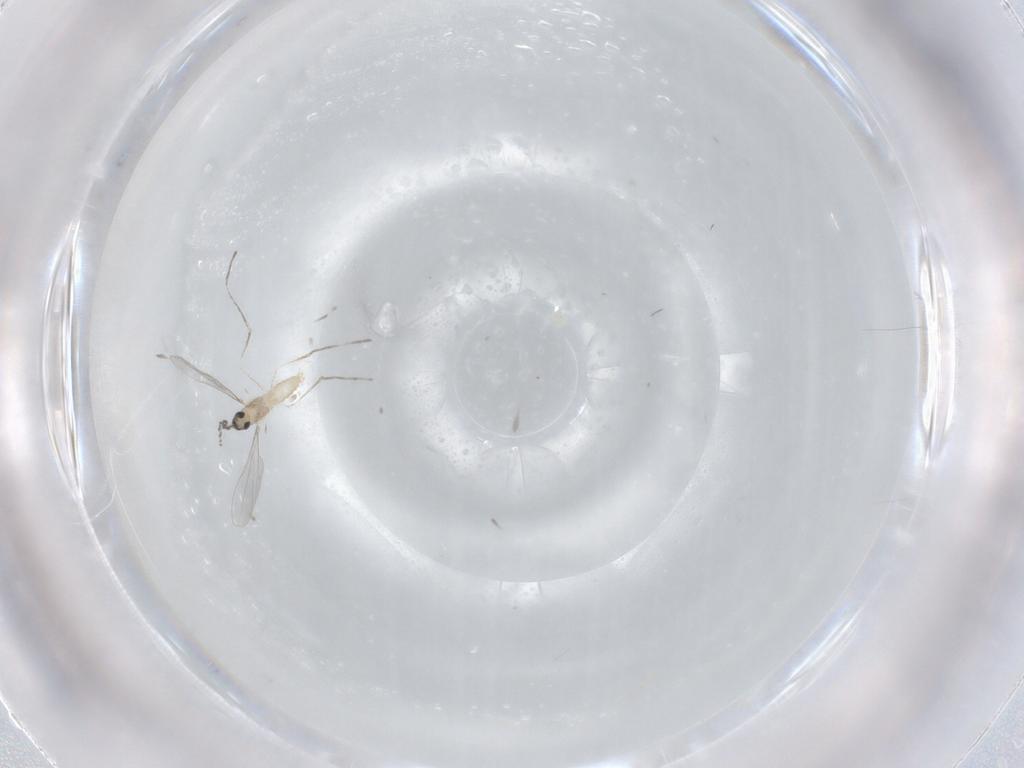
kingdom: Animalia
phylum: Arthropoda
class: Insecta
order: Diptera
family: Cecidomyiidae
